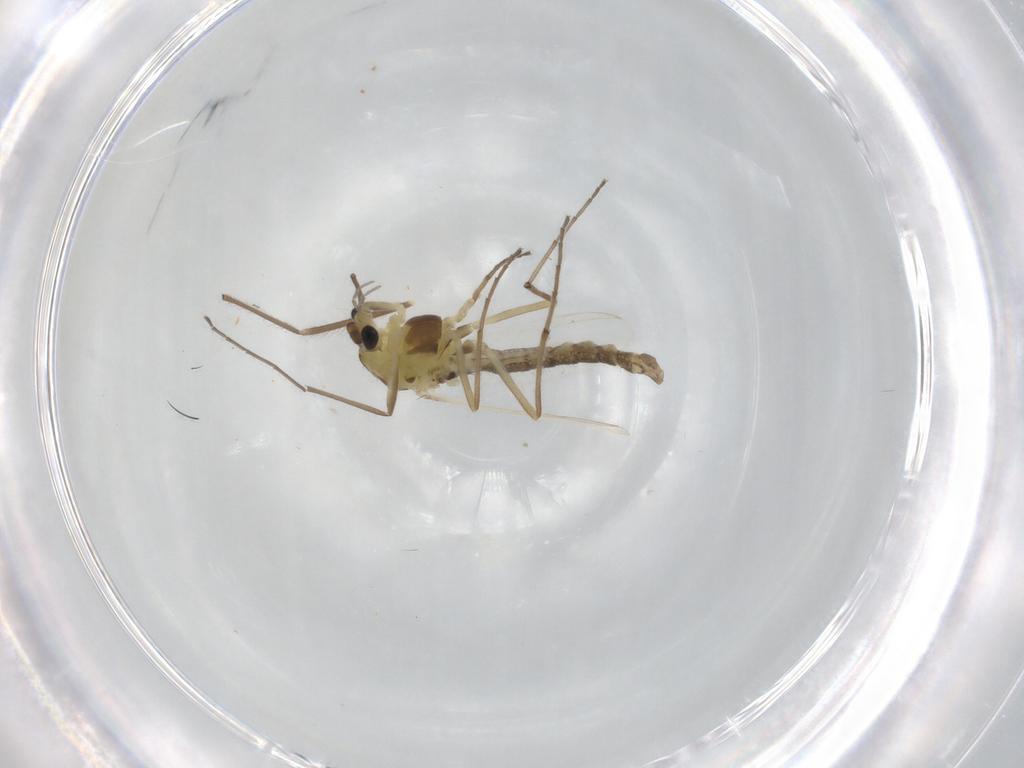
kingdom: Animalia
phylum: Arthropoda
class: Insecta
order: Diptera
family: Chironomidae
